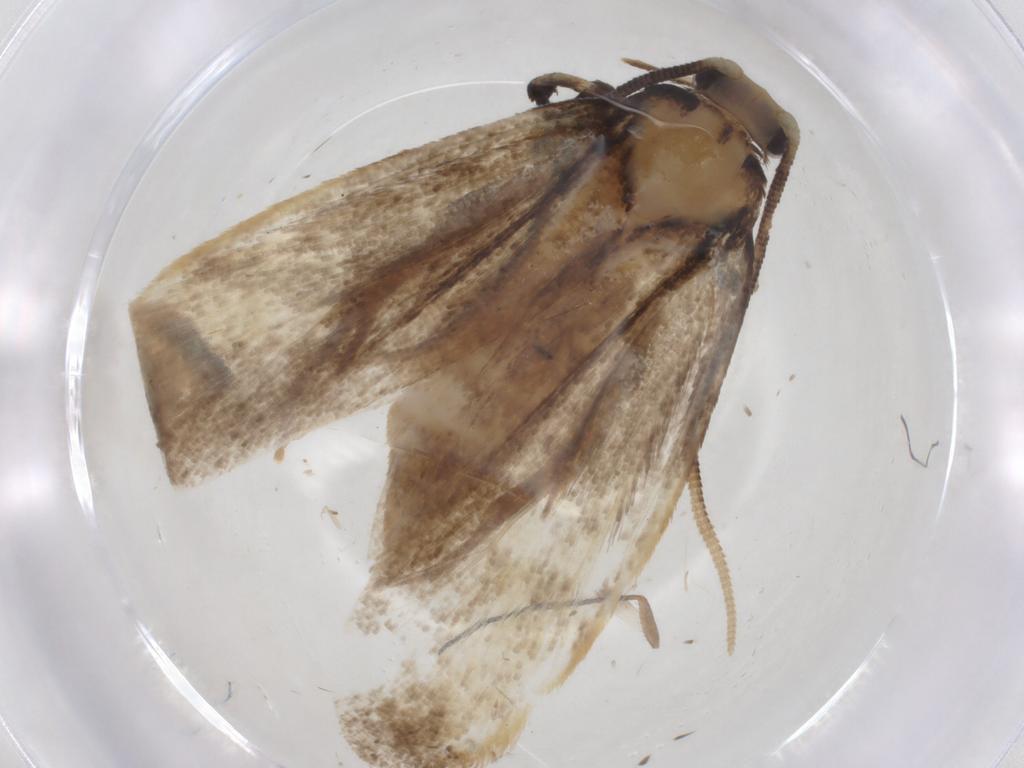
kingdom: Animalia
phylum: Arthropoda
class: Insecta
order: Lepidoptera
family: Tineidae
